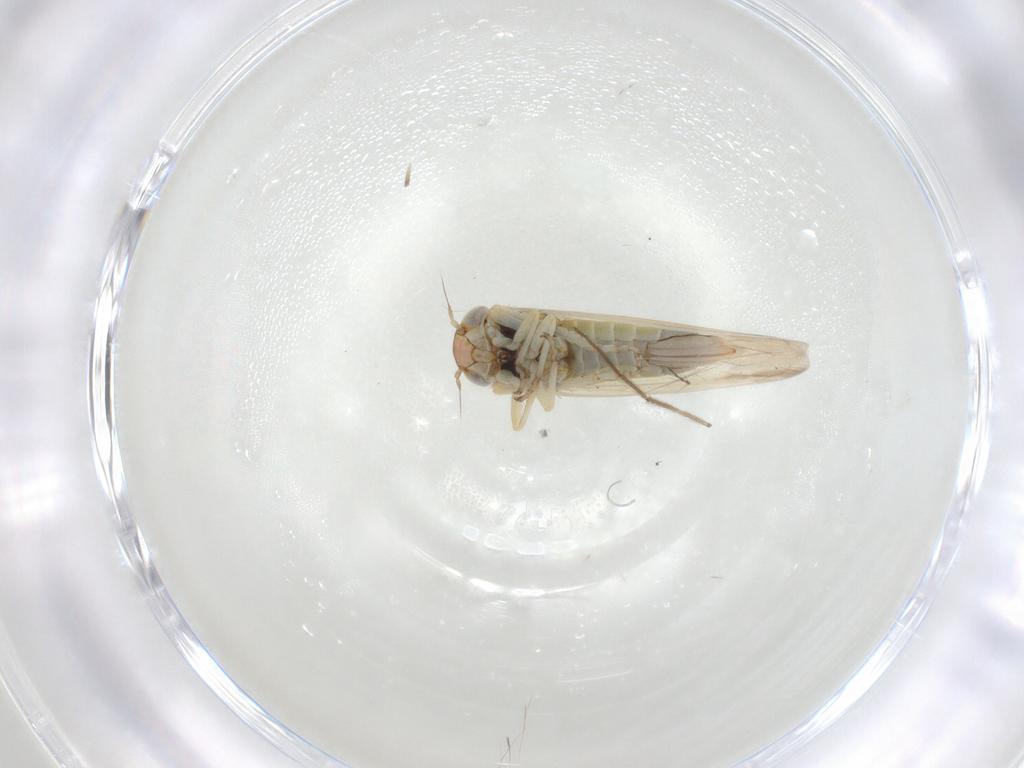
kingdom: Animalia
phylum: Arthropoda
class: Insecta
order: Hemiptera
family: Cicadellidae
